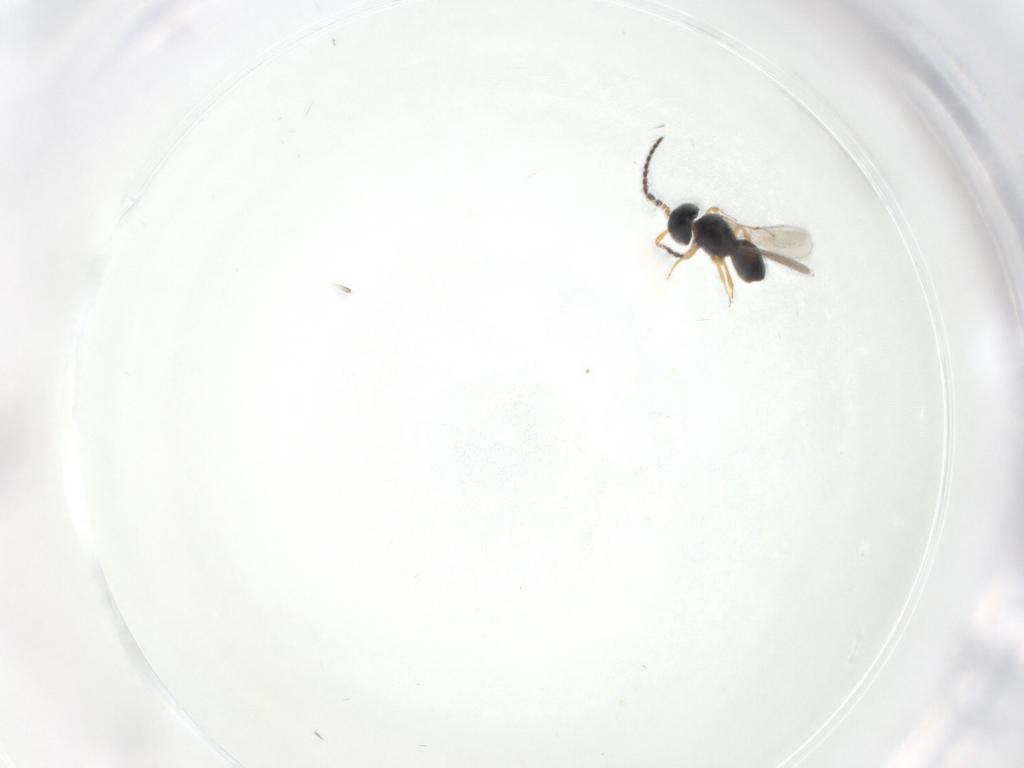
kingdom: Animalia
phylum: Arthropoda
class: Insecta
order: Hymenoptera
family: Scelionidae
